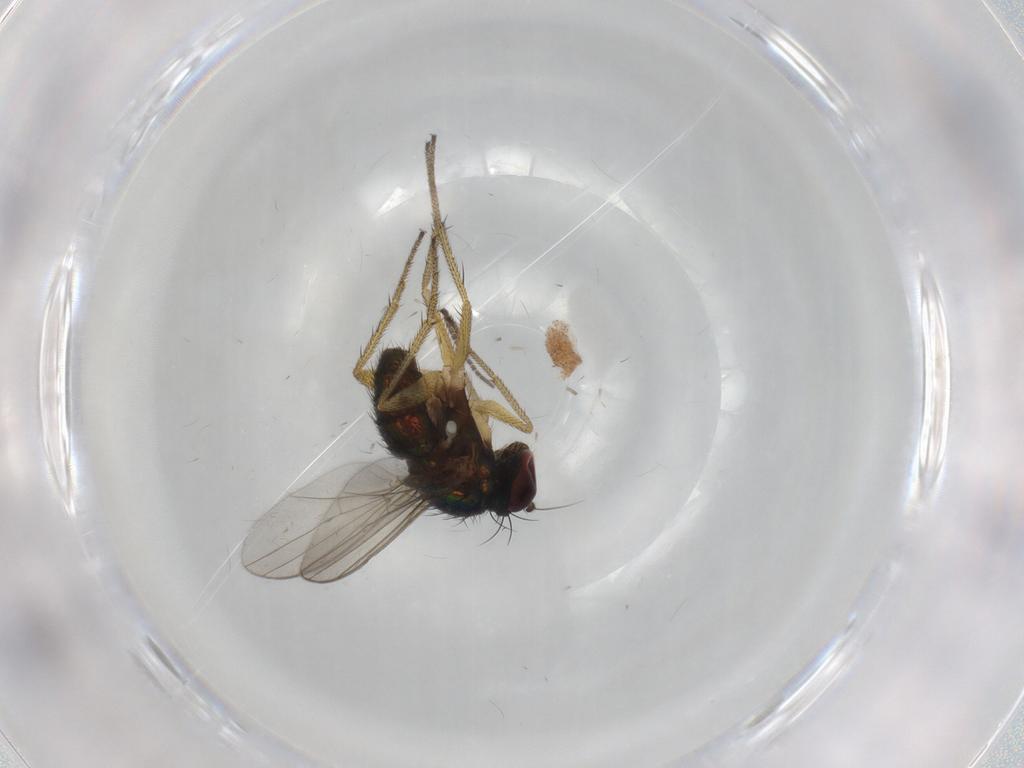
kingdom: Animalia
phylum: Arthropoda
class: Insecta
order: Diptera
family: Sciaridae
